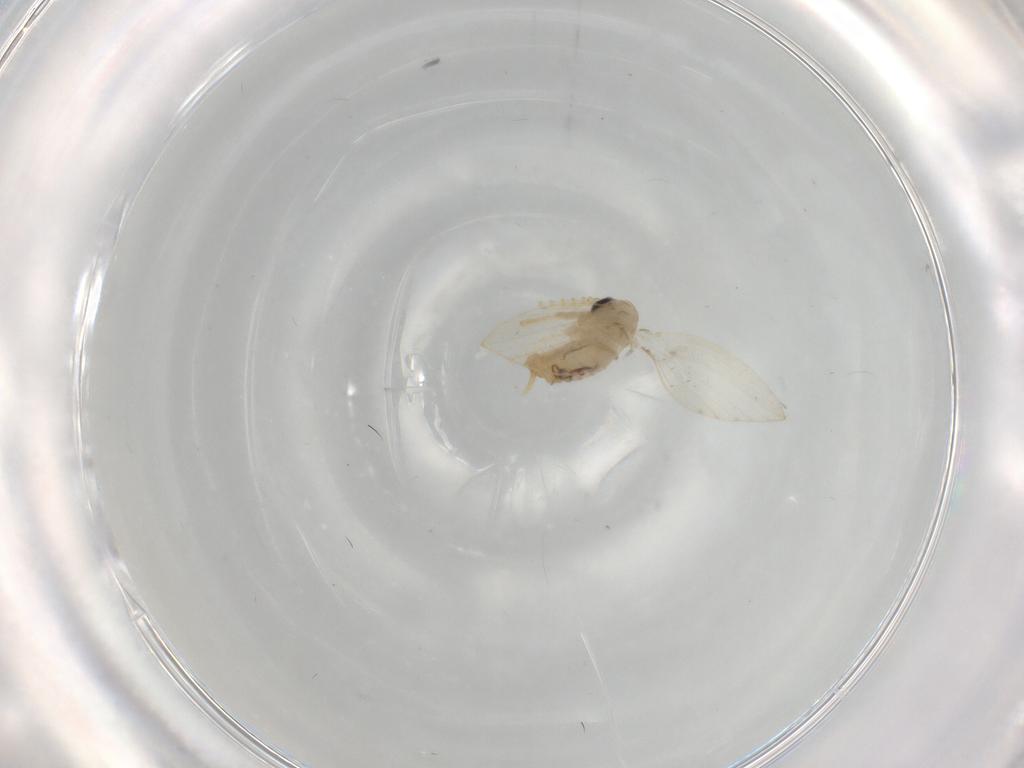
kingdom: Animalia
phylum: Arthropoda
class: Insecta
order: Diptera
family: Psychodidae
